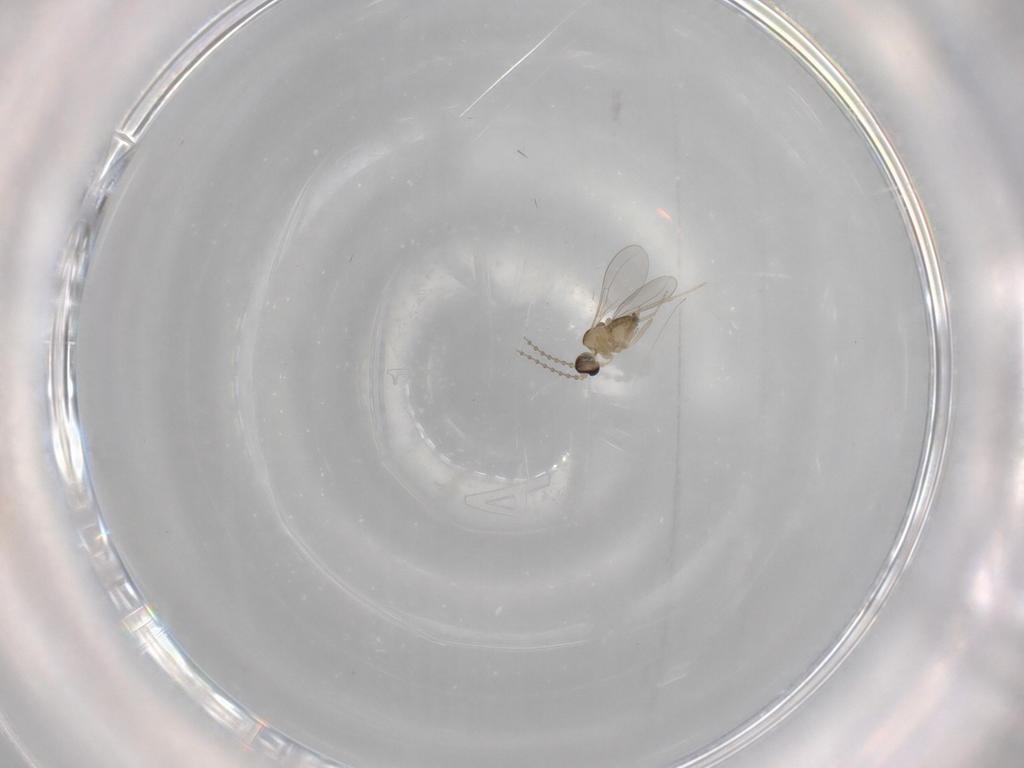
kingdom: Animalia
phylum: Arthropoda
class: Insecta
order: Diptera
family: Cecidomyiidae
